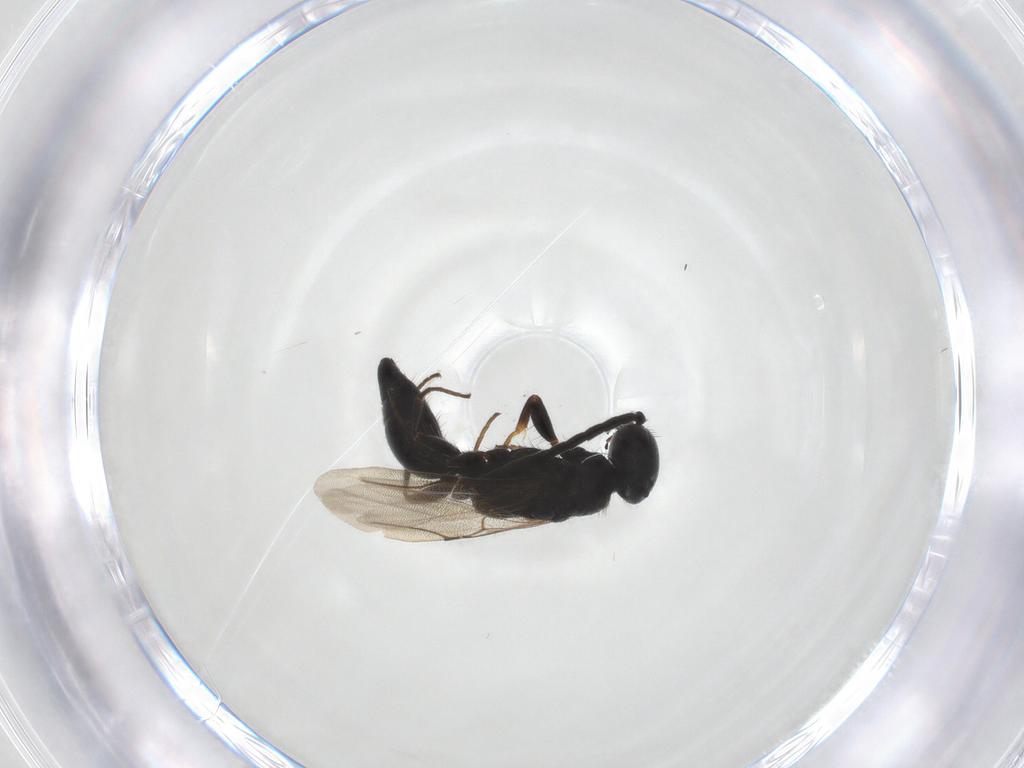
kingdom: Animalia
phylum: Arthropoda
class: Insecta
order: Hymenoptera
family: Bethylidae
